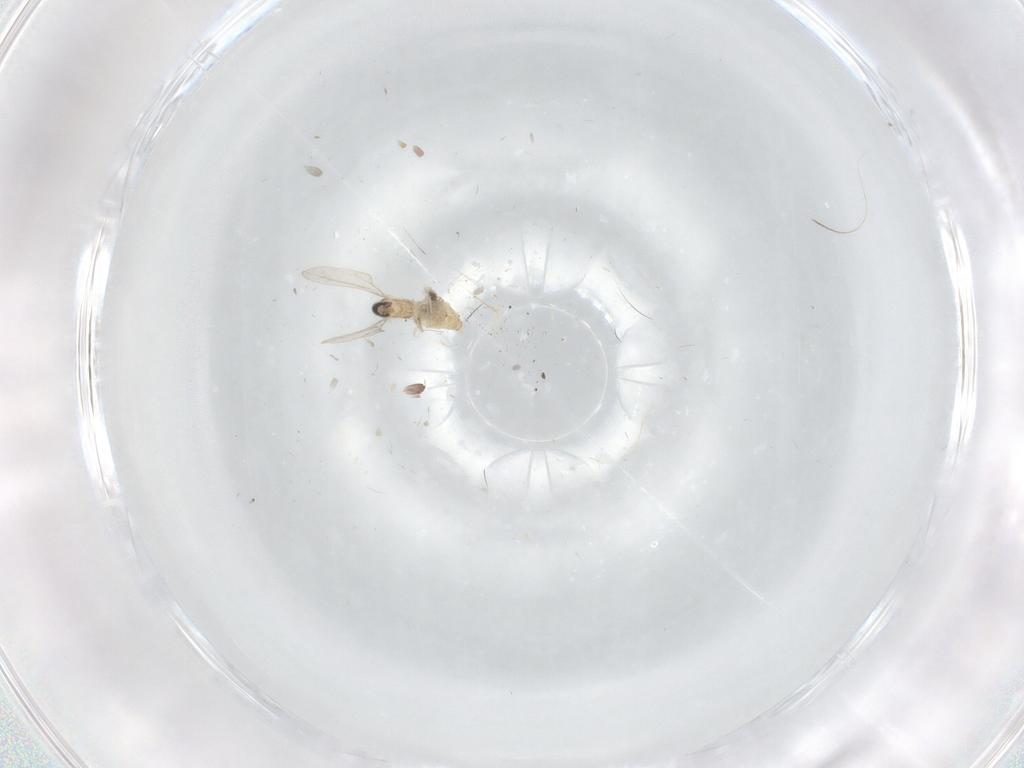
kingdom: Animalia
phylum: Arthropoda
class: Insecta
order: Diptera
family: Cecidomyiidae
